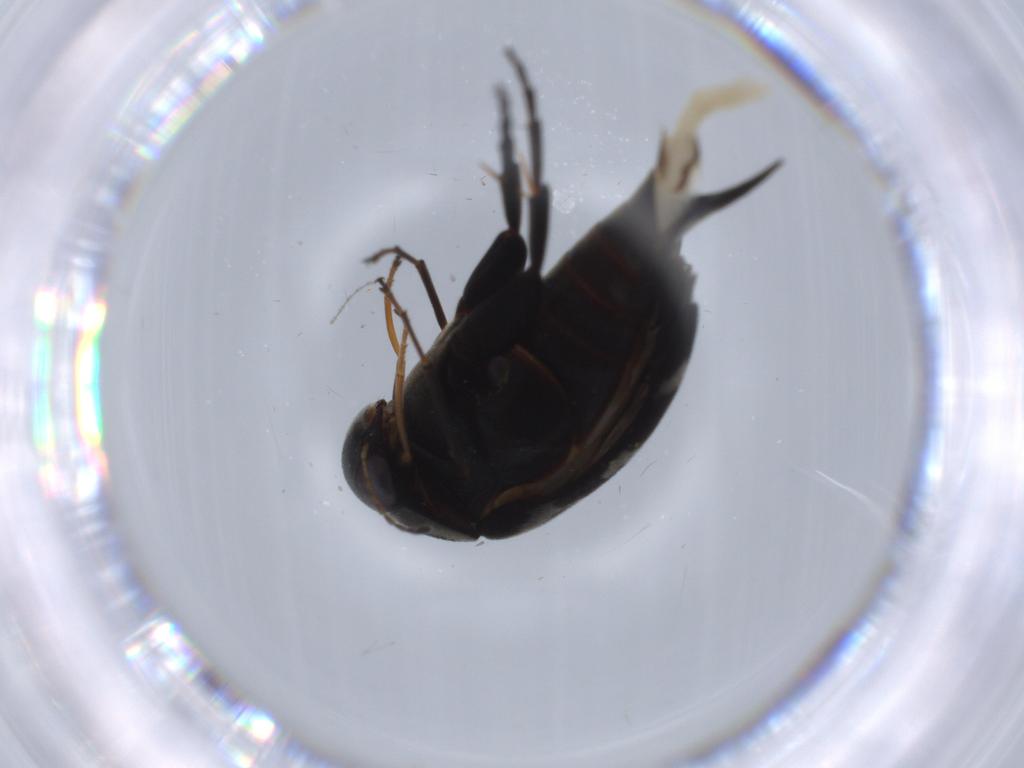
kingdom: Animalia
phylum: Arthropoda
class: Insecta
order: Coleoptera
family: Mordellidae
